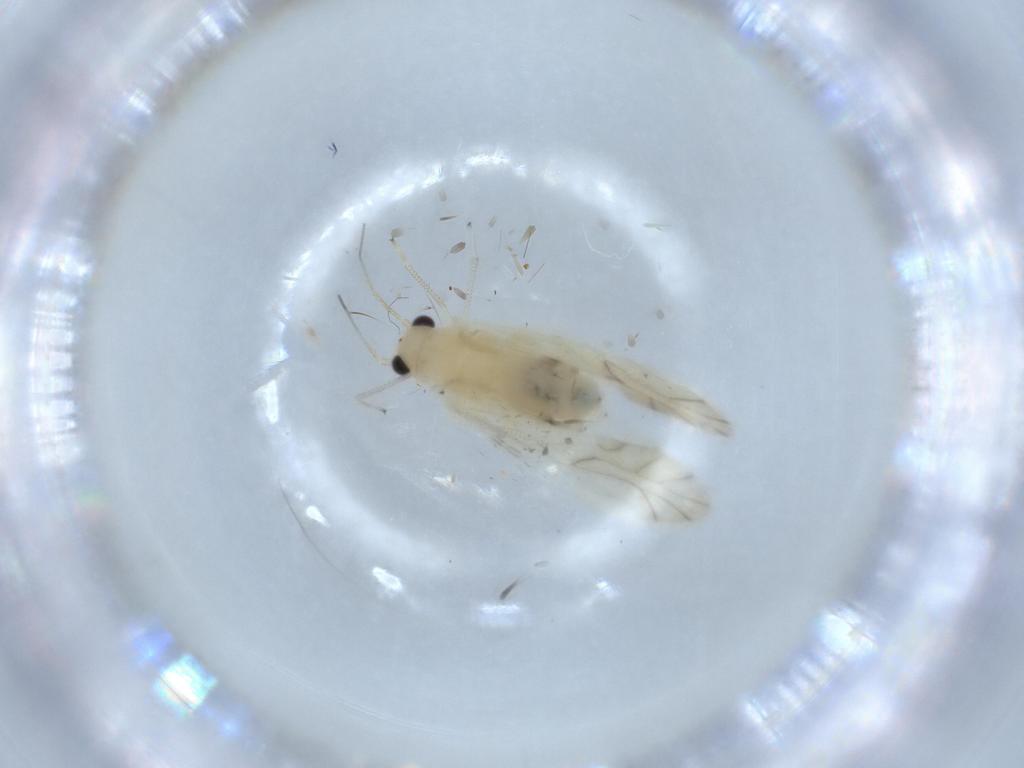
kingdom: Animalia
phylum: Arthropoda
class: Insecta
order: Psocodea
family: Caeciliusidae
